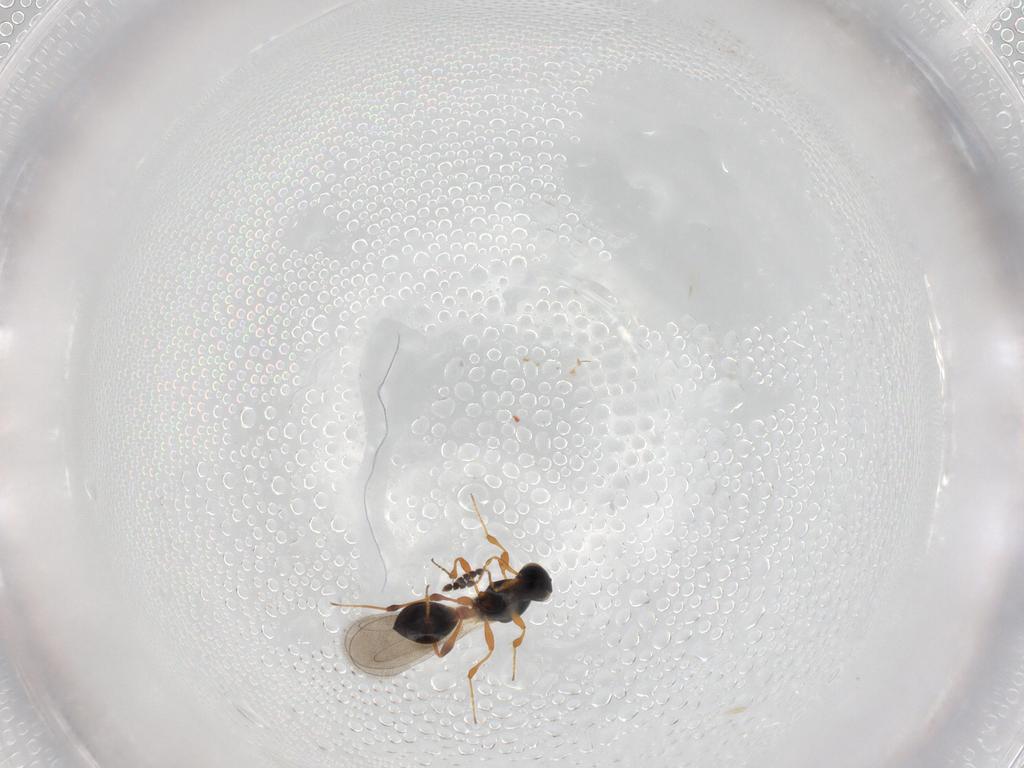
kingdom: Animalia
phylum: Arthropoda
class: Insecta
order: Hymenoptera
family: Platygastridae
